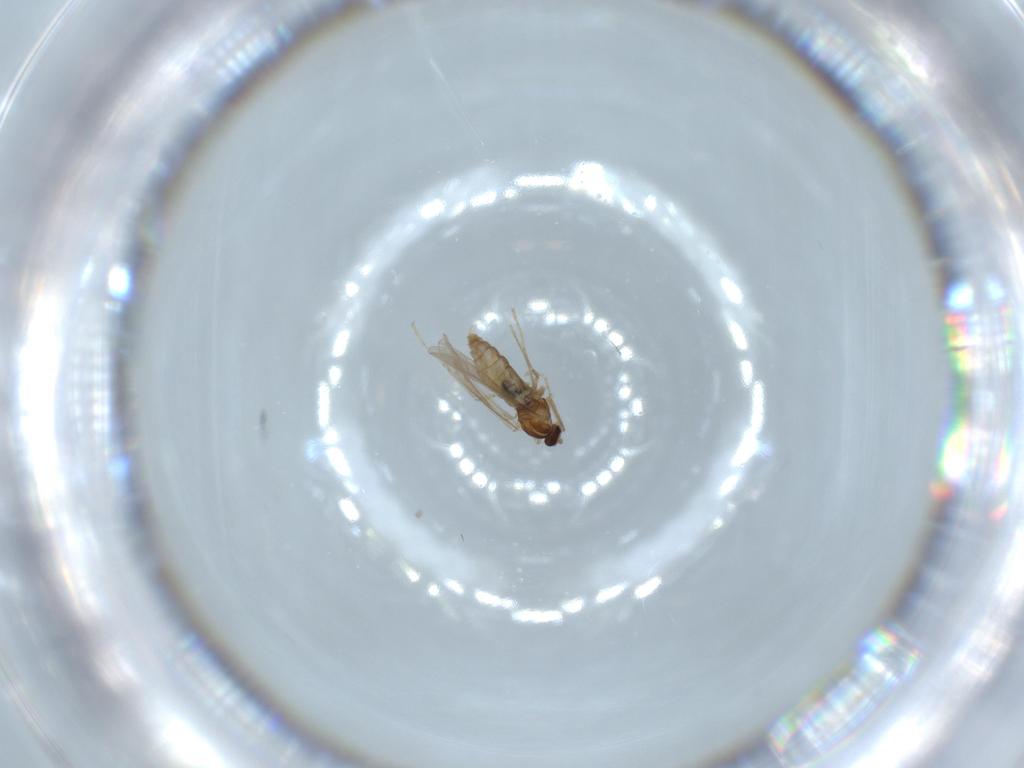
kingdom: Animalia
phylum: Arthropoda
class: Insecta
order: Diptera
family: Cecidomyiidae
